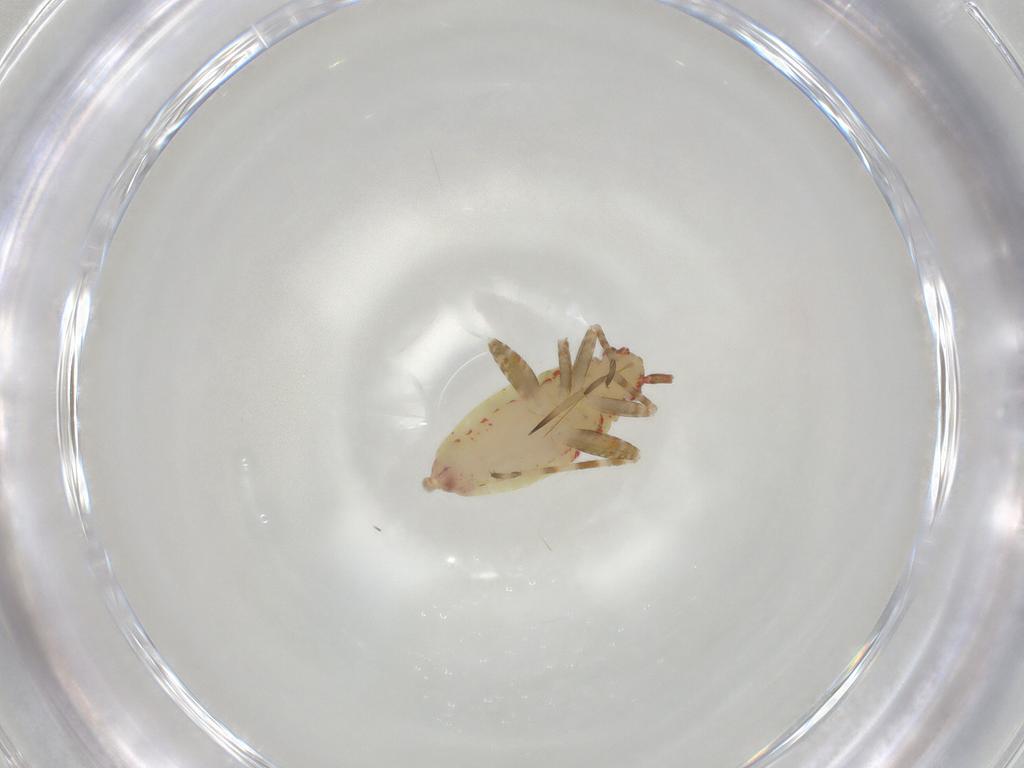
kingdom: Animalia
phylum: Arthropoda
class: Insecta
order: Hemiptera
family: Miridae
